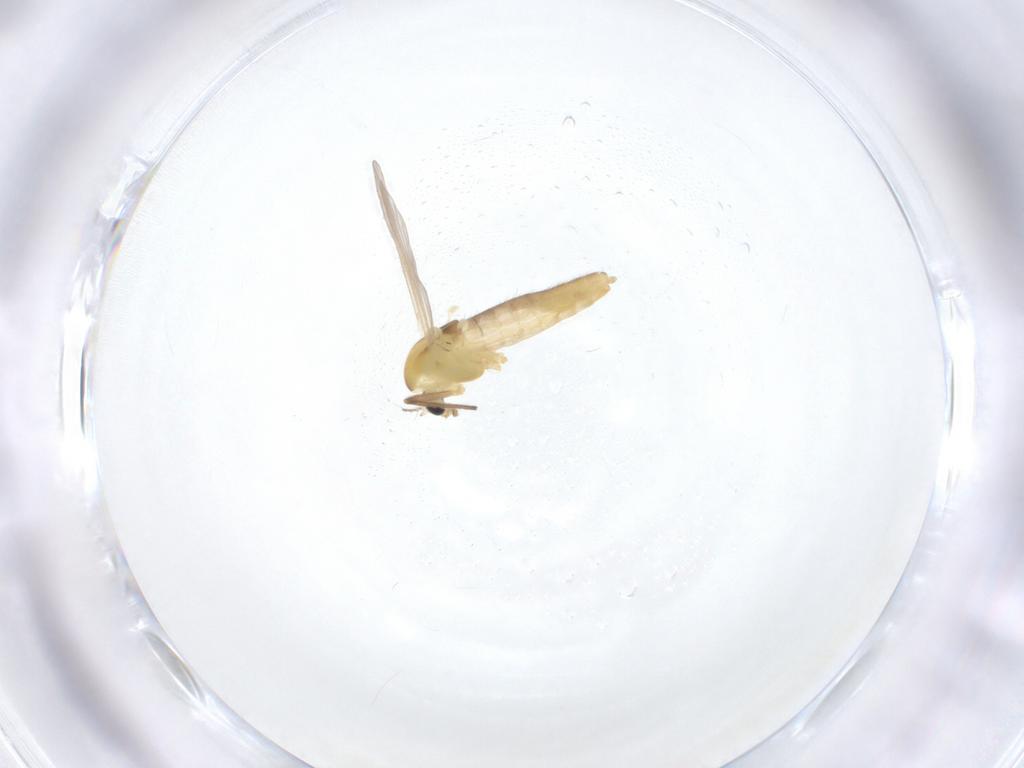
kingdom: Animalia
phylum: Arthropoda
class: Insecta
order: Diptera
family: Chironomidae
